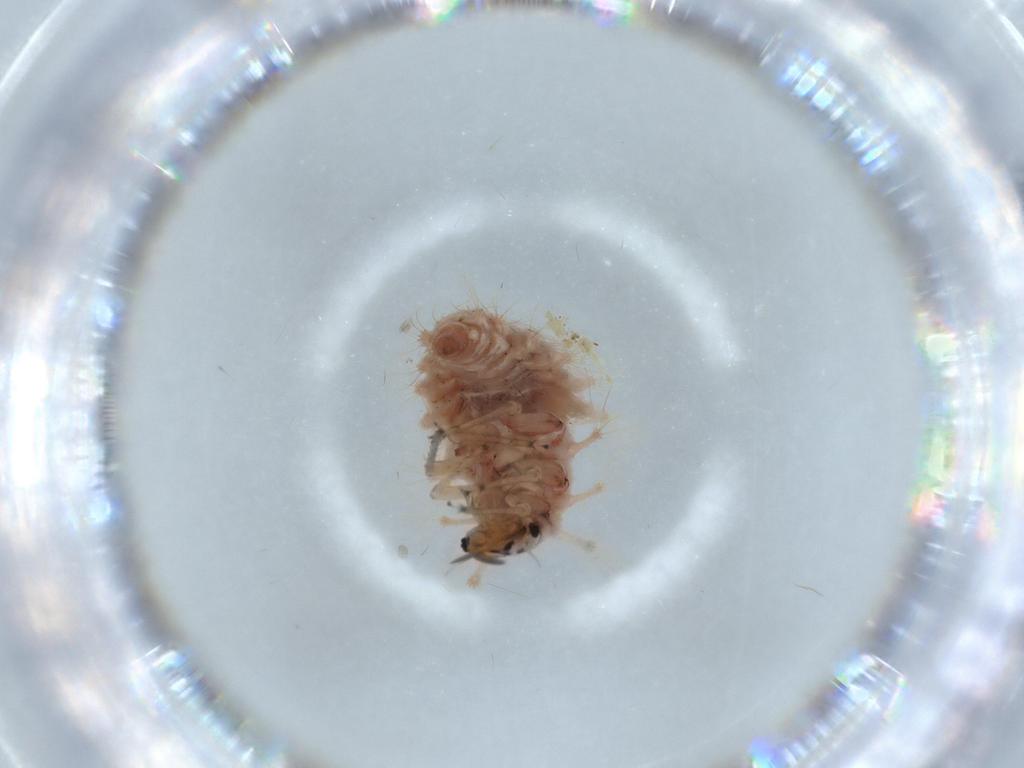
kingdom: Animalia
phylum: Arthropoda
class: Insecta
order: Neuroptera
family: Chrysopidae
